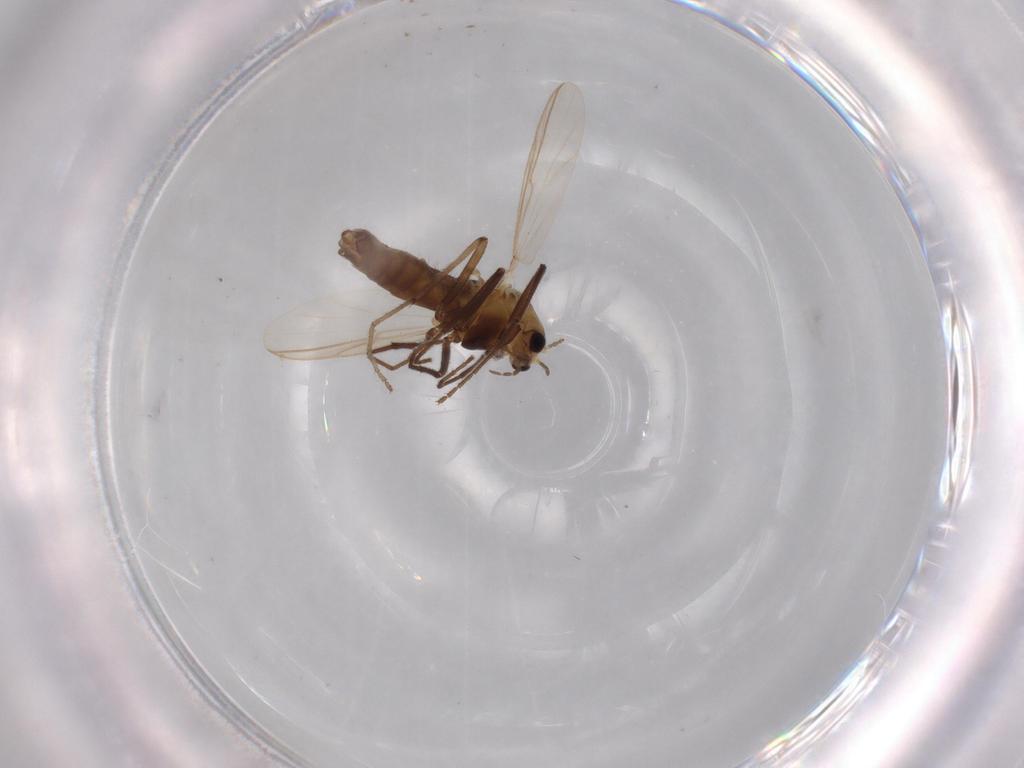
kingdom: Animalia
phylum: Arthropoda
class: Insecta
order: Diptera
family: Chironomidae
